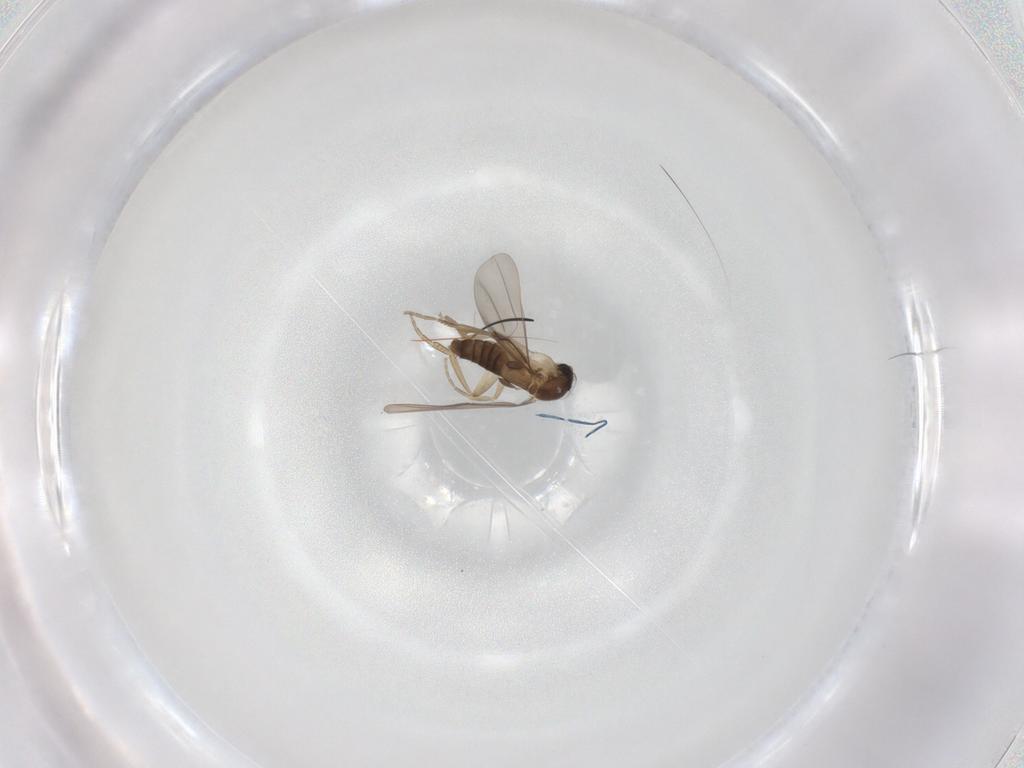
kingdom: Animalia
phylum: Arthropoda
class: Insecta
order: Diptera
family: Phoridae
